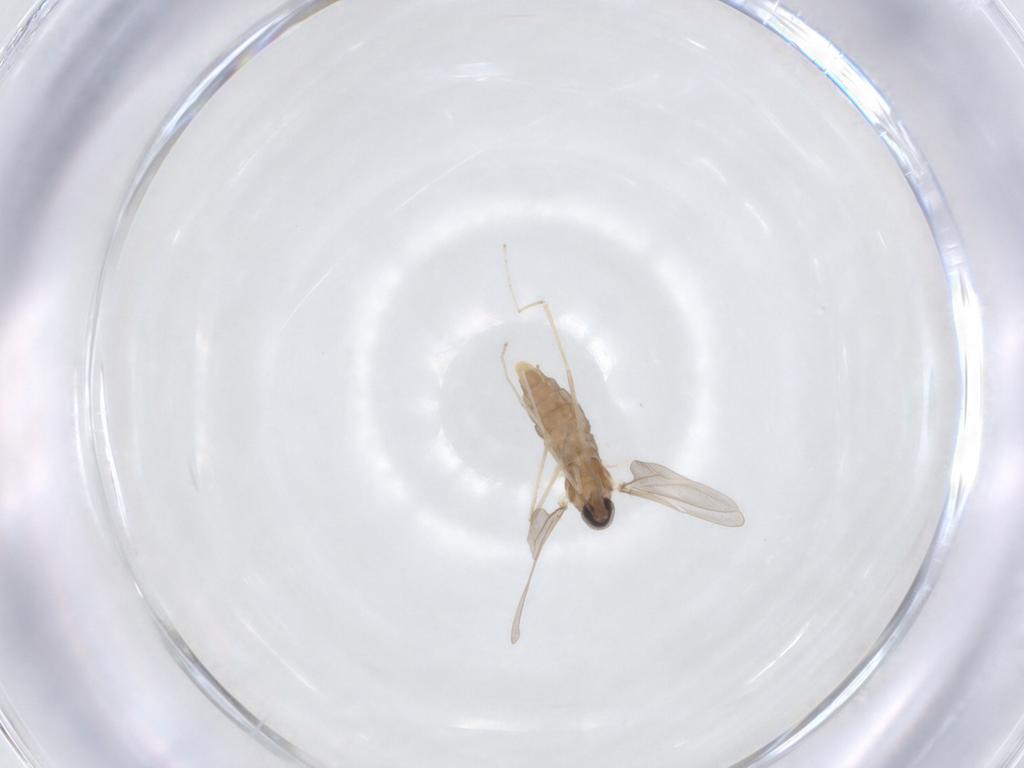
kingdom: Animalia
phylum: Arthropoda
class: Insecta
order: Diptera
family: Cecidomyiidae
